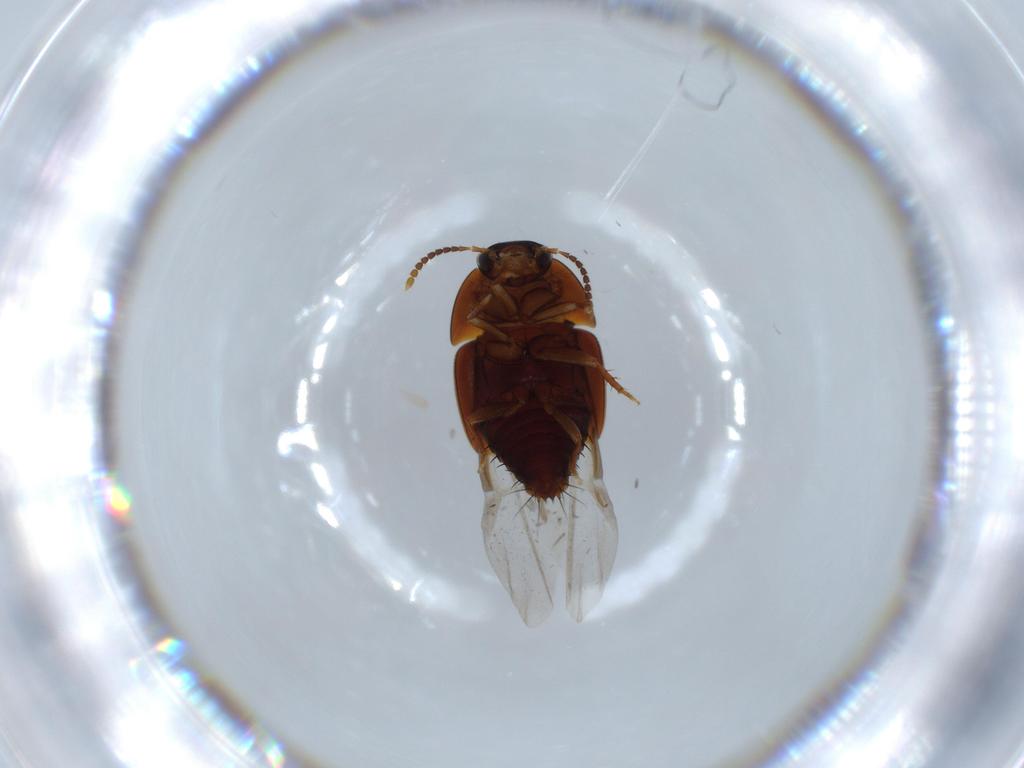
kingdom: Animalia
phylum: Arthropoda
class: Insecta
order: Coleoptera
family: Staphylinidae
